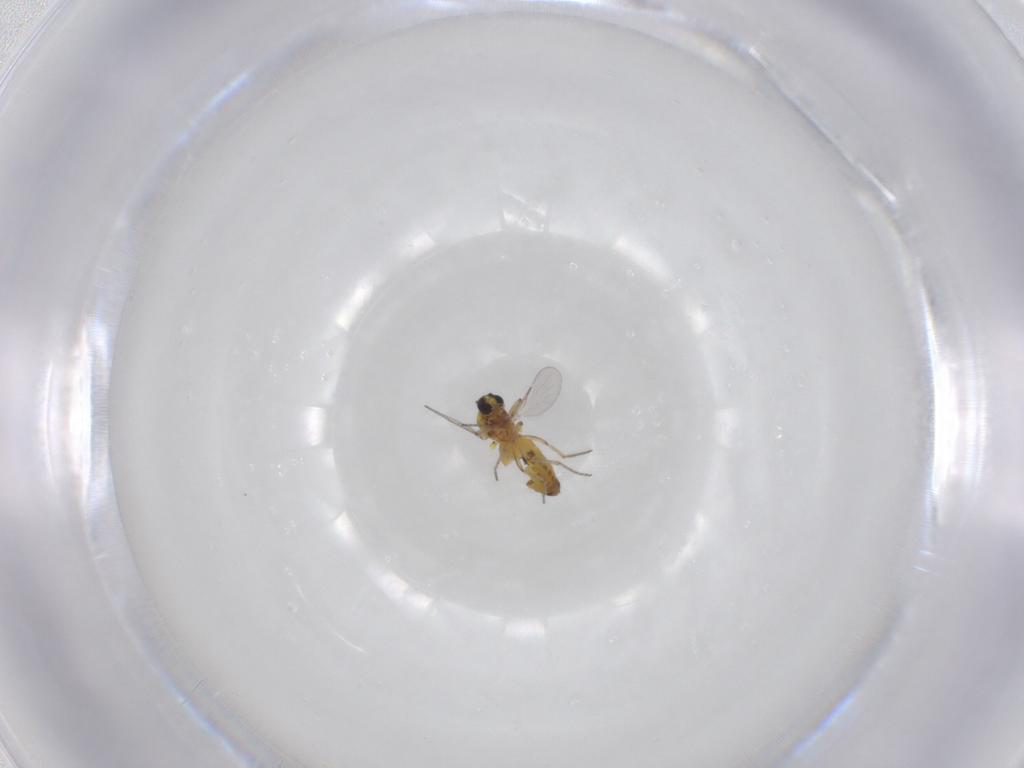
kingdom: Animalia
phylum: Arthropoda
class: Insecta
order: Diptera
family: Ceratopogonidae
